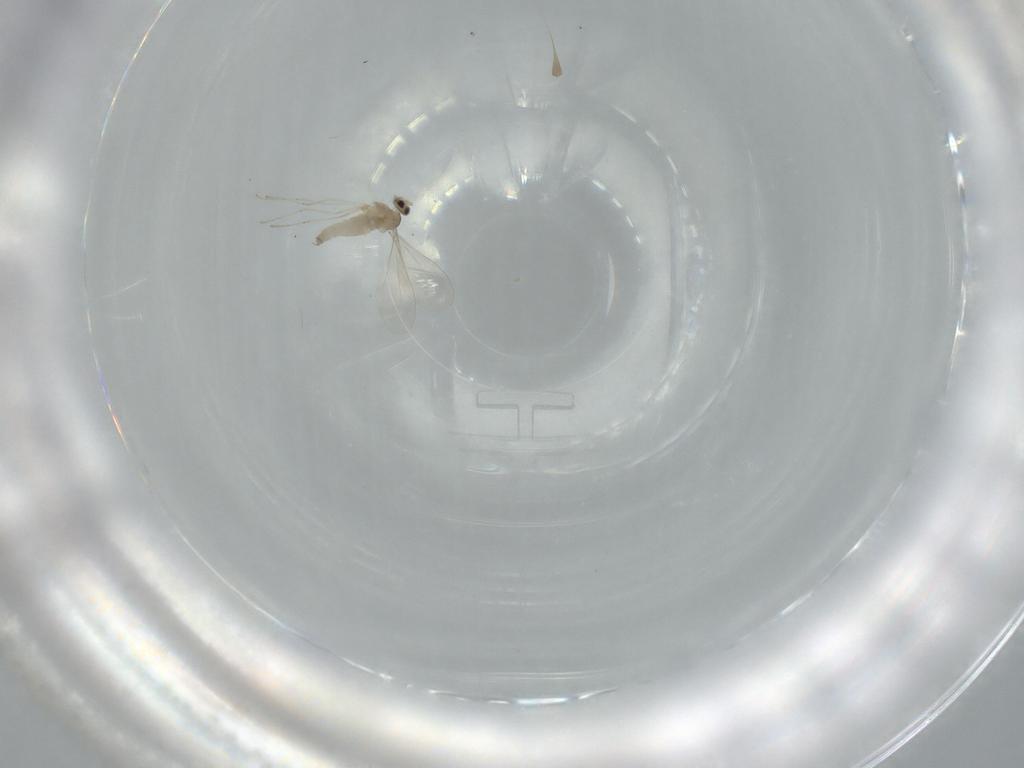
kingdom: Animalia
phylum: Arthropoda
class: Insecta
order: Diptera
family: Cecidomyiidae
